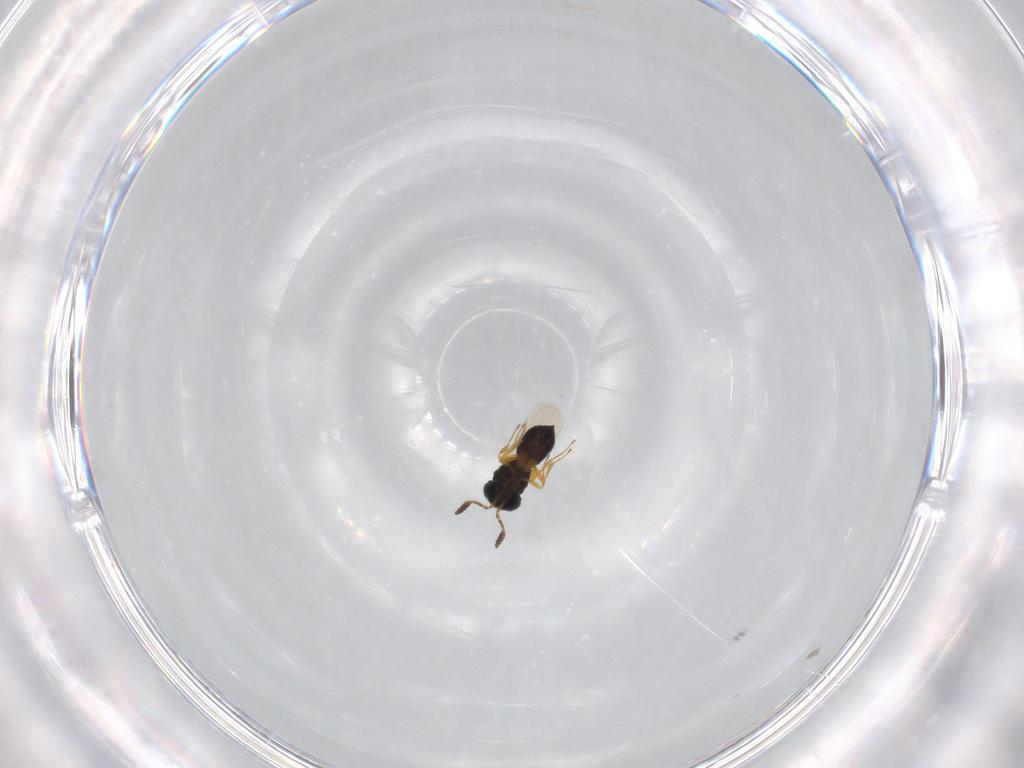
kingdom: Animalia
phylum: Arthropoda
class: Insecta
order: Hymenoptera
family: Scelionidae
